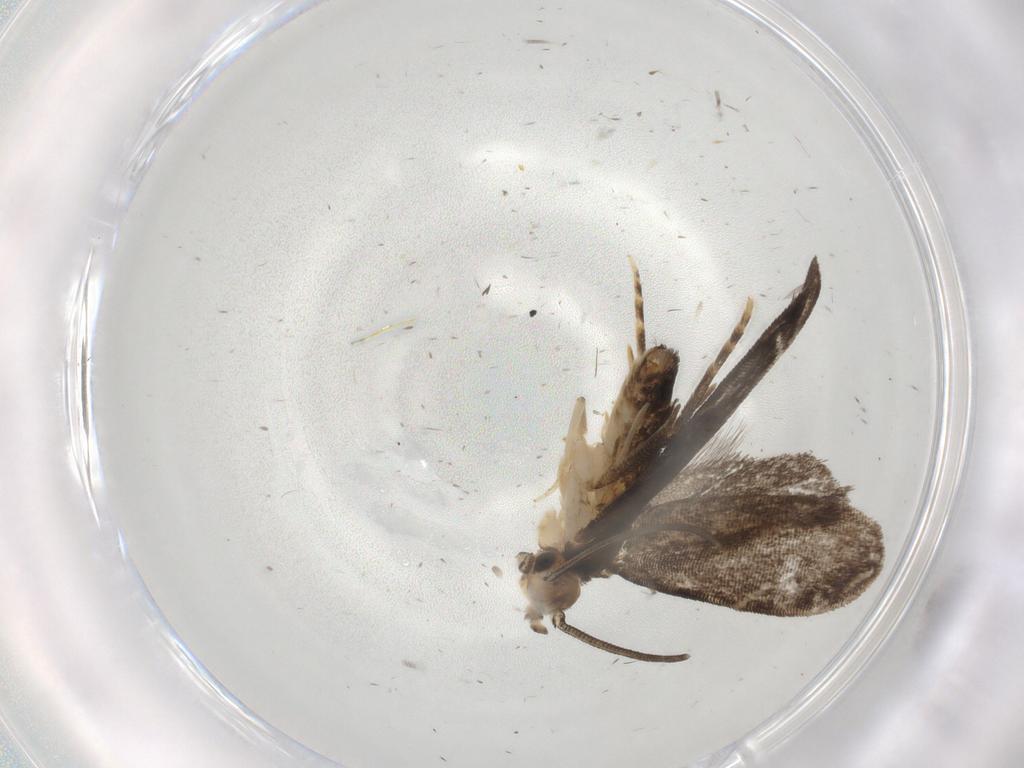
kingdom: Animalia
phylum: Arthropoda
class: Insecta
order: Lepidoptera
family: Dryadaulidae
